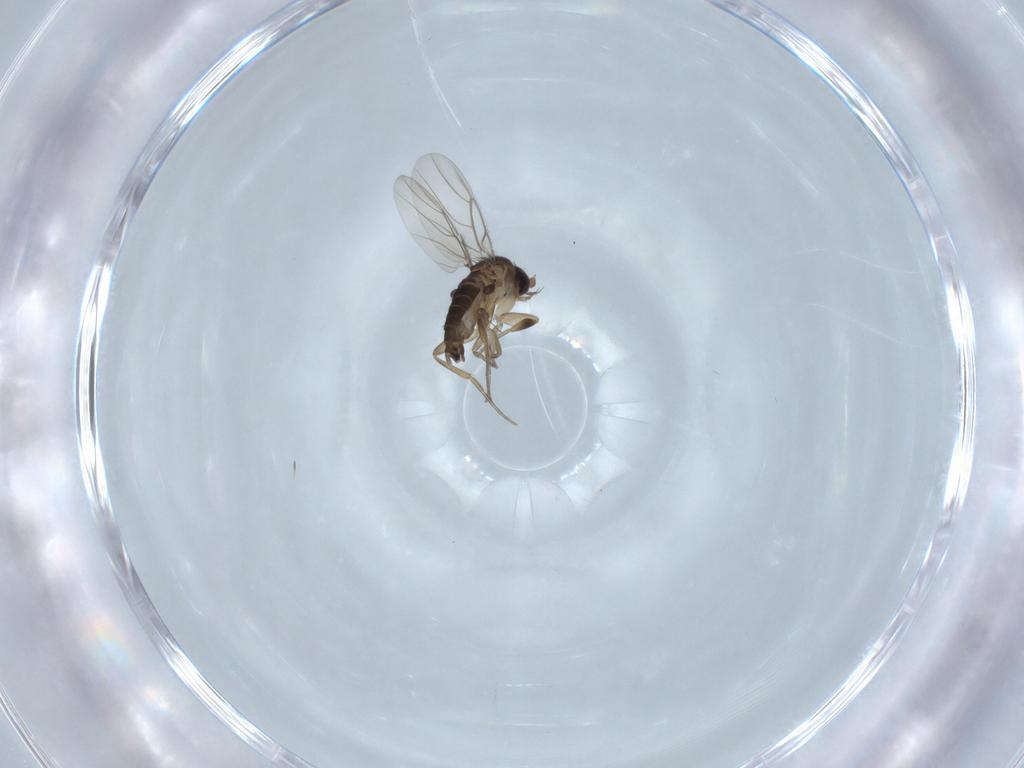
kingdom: Animalia
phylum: Arthropoda
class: Insecta
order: Diptera
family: Phoridae
